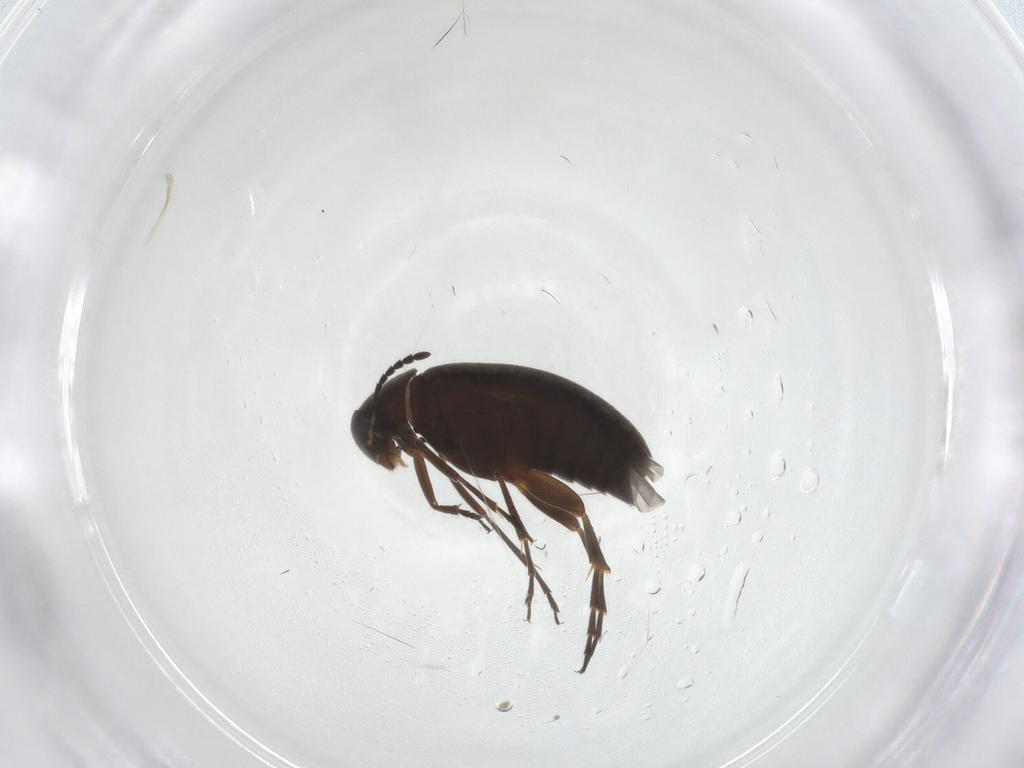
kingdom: Animalia
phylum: Arthropoda
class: Insecta
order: Coleoptera
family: Scraptiidae
